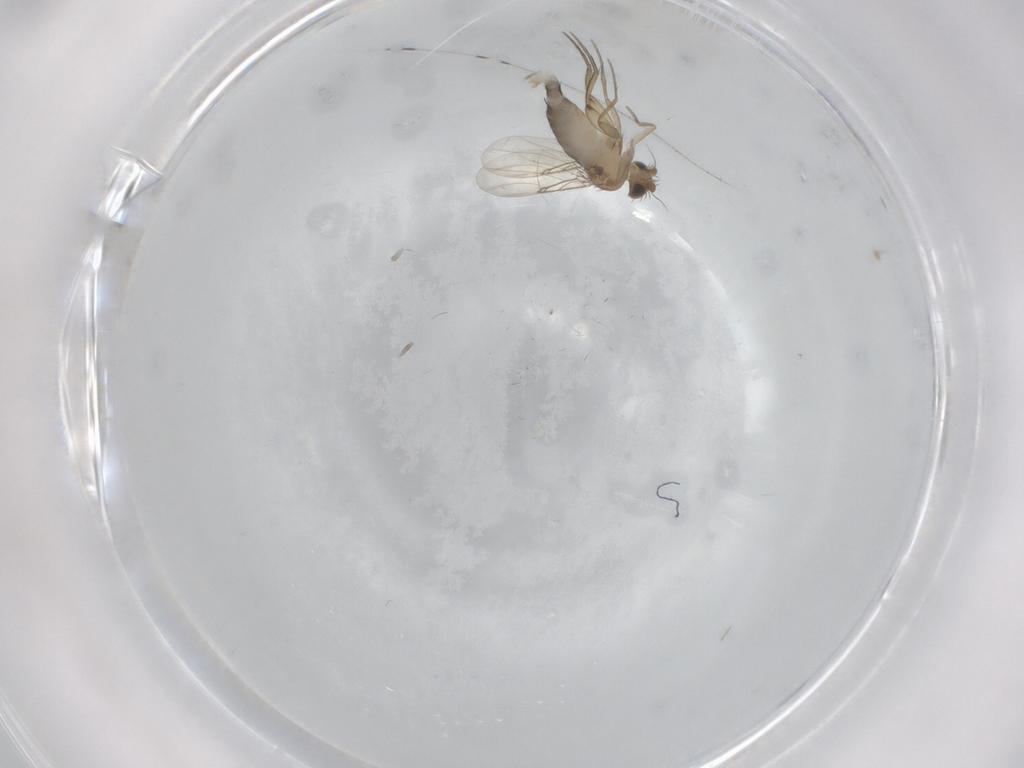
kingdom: Animalia
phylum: Arthropoda
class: Insecta
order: Diptera
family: Phoridae
